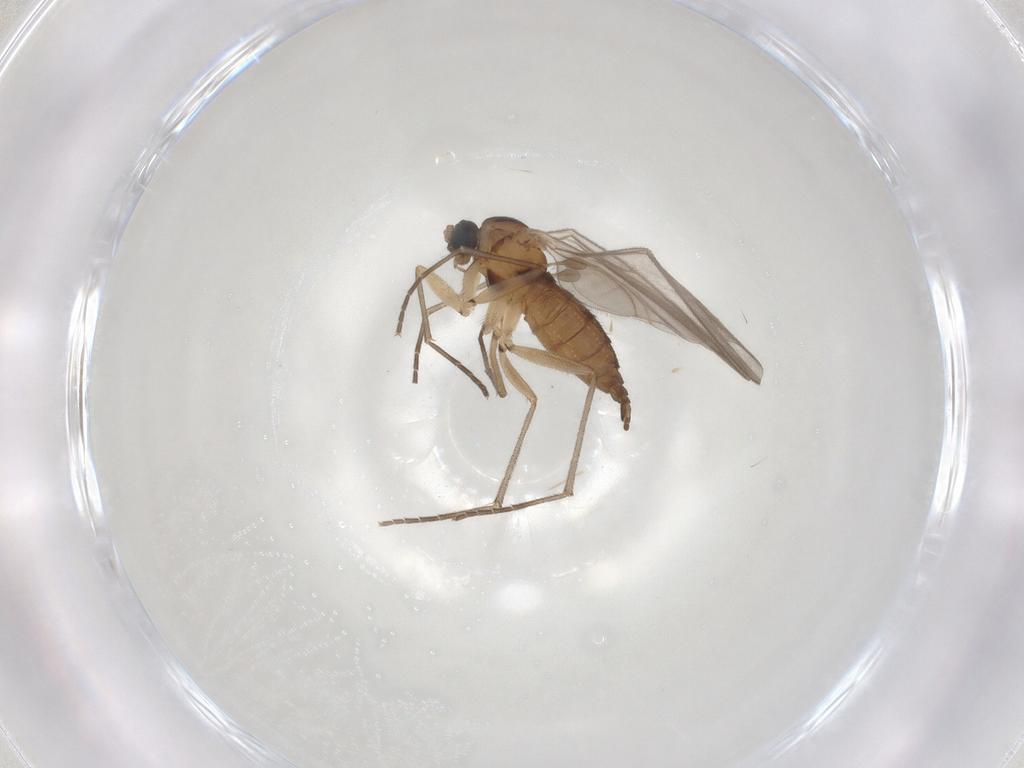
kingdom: Animalia
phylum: Arthropoda
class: Insecta
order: Diptera
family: Sciaridae
